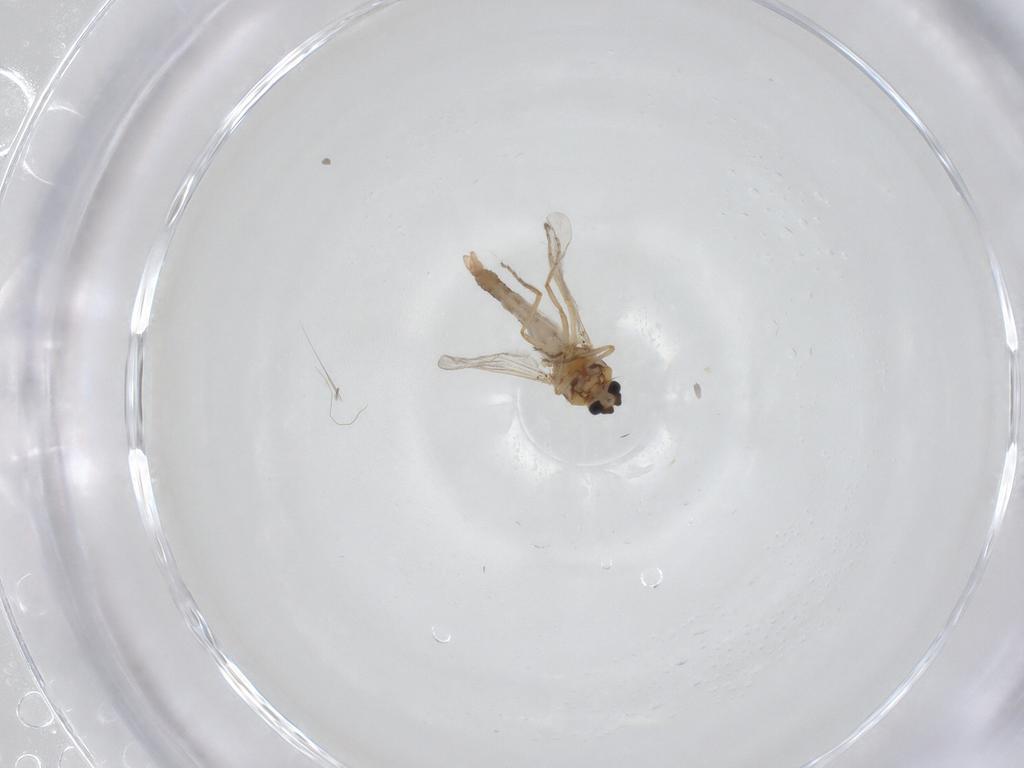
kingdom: Animalia
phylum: Arthropoda
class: Insecta
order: Diptera
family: Ceratopogonidae
